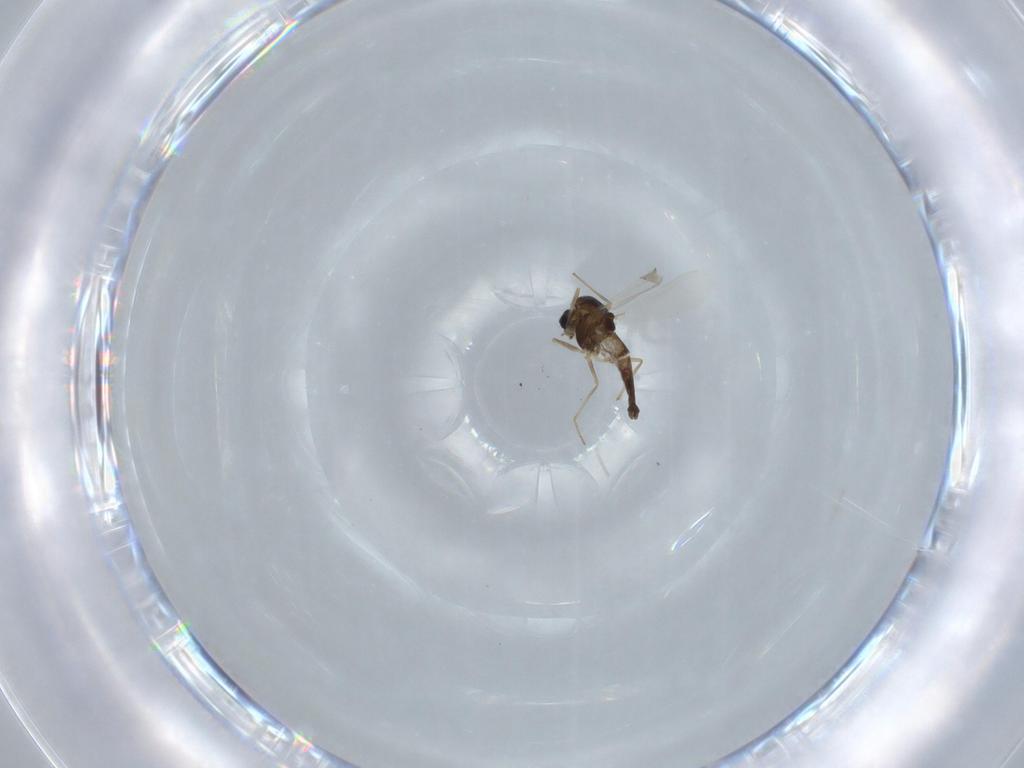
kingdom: Animalia
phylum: Arthropoda
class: Insecta
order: Diptera
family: Chironomidae
